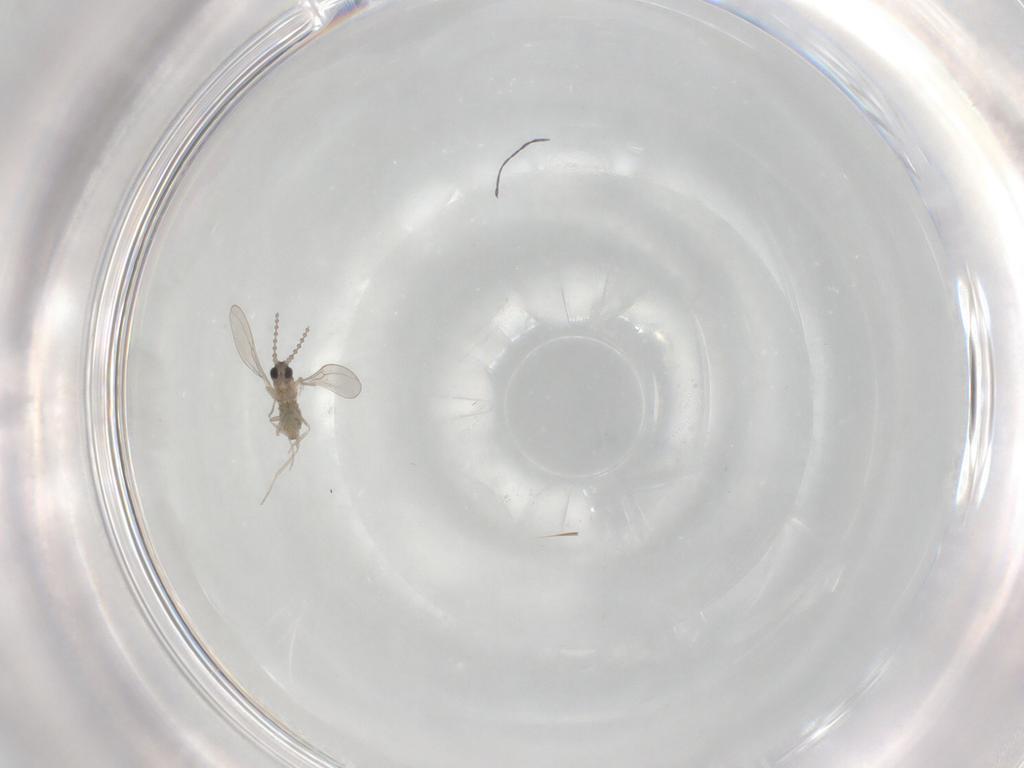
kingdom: Animalia
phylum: Arthropoda
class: Insecta
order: Diptera
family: Cecidomyiidae
